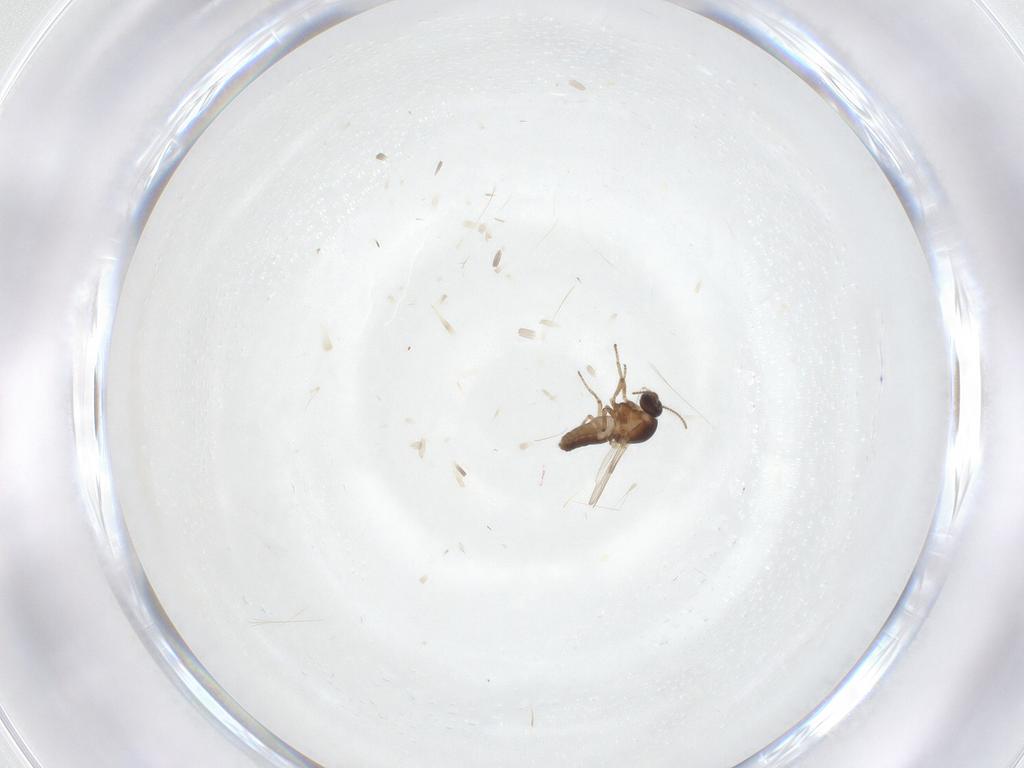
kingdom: Animalia
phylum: Arthropoda
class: Insecta
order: Diptera
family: Ceratopogonidae
